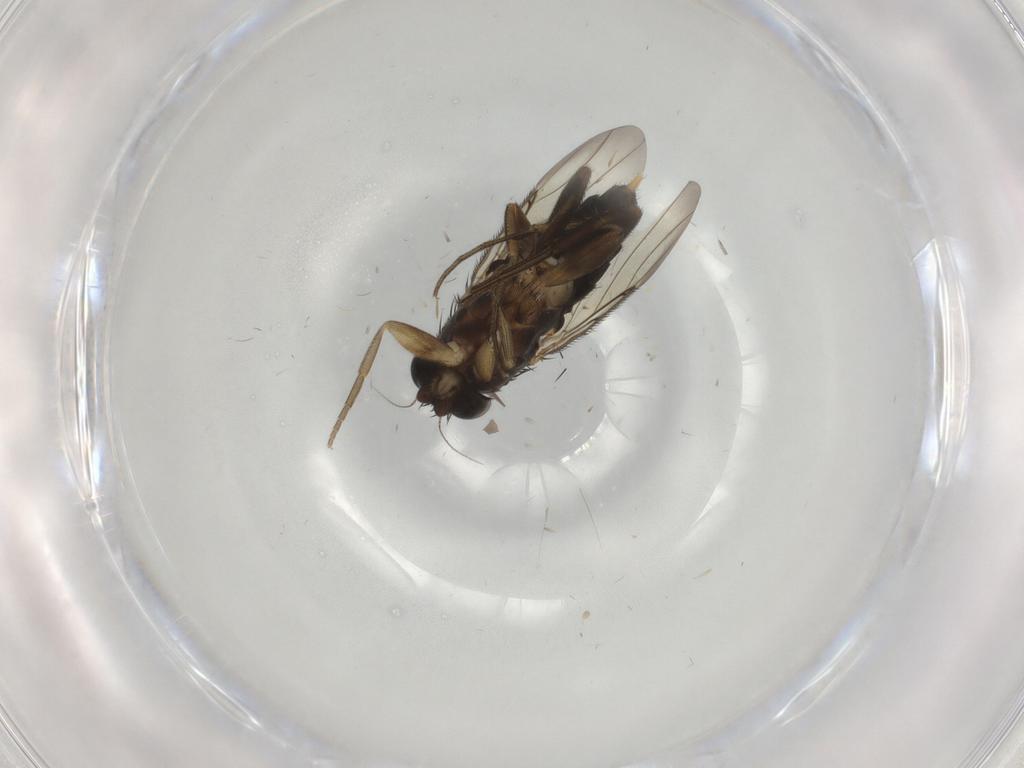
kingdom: Animalia
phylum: Arthropoda
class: Insecta
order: Diptera
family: Phoridae
